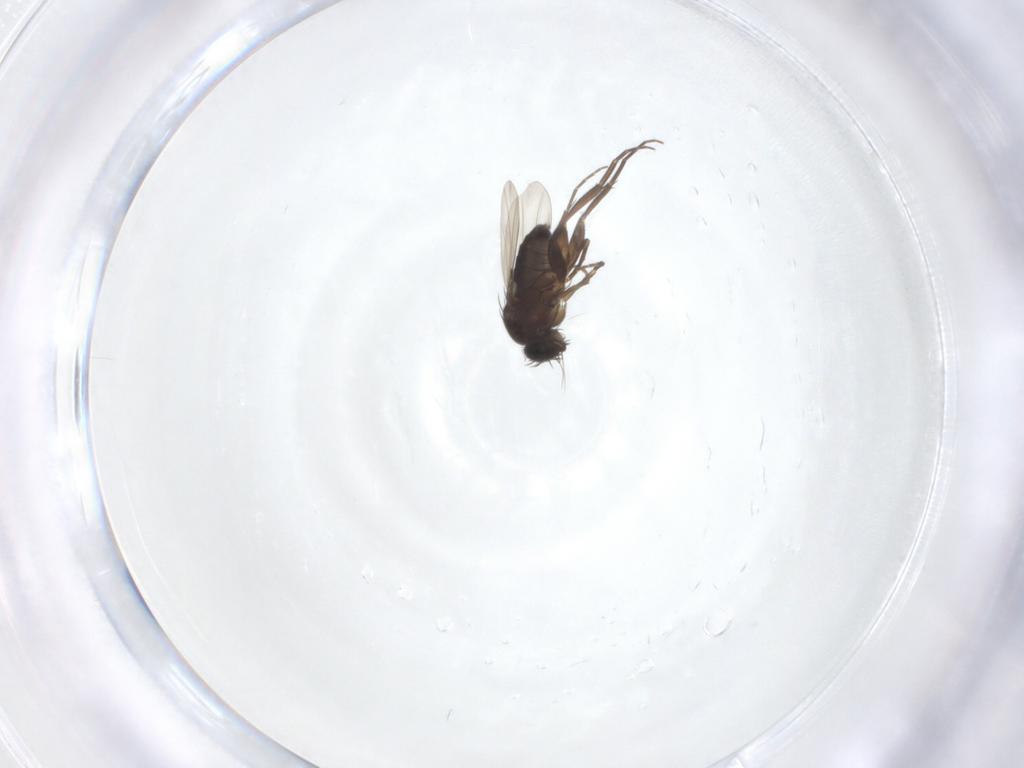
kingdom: Animalia
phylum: Arthropoda
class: Insecta
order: Diptera
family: Carnidae
